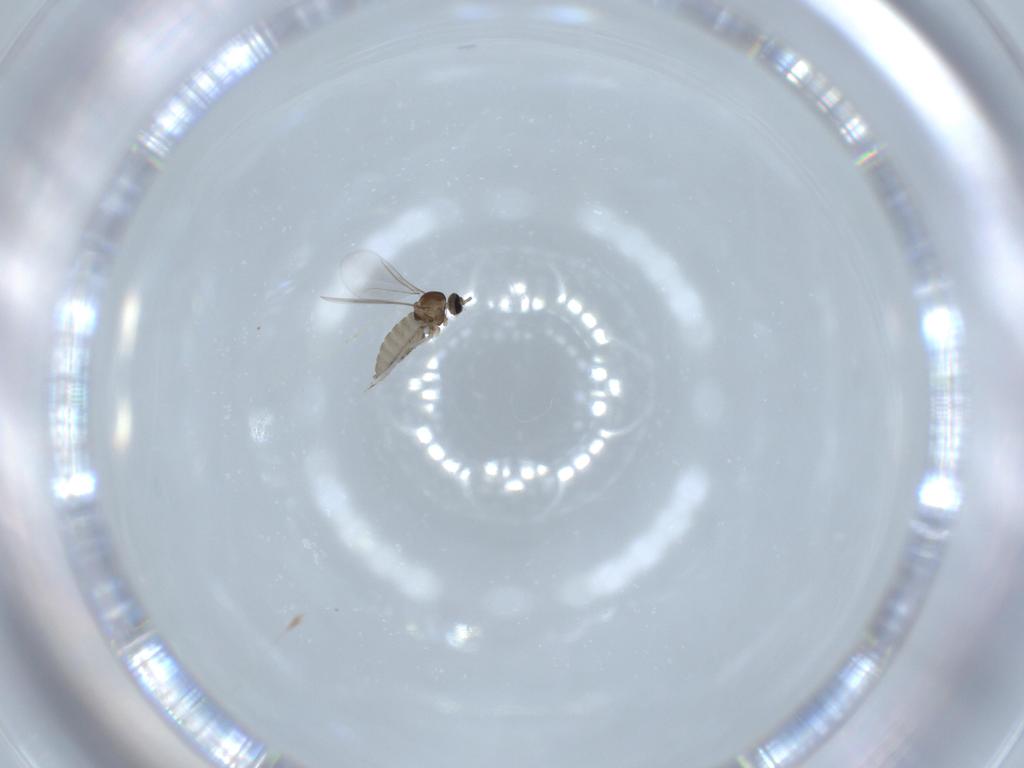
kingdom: Animalia
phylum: Arthropoda
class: Insecta
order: Diptera
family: Cecidomyiidae
